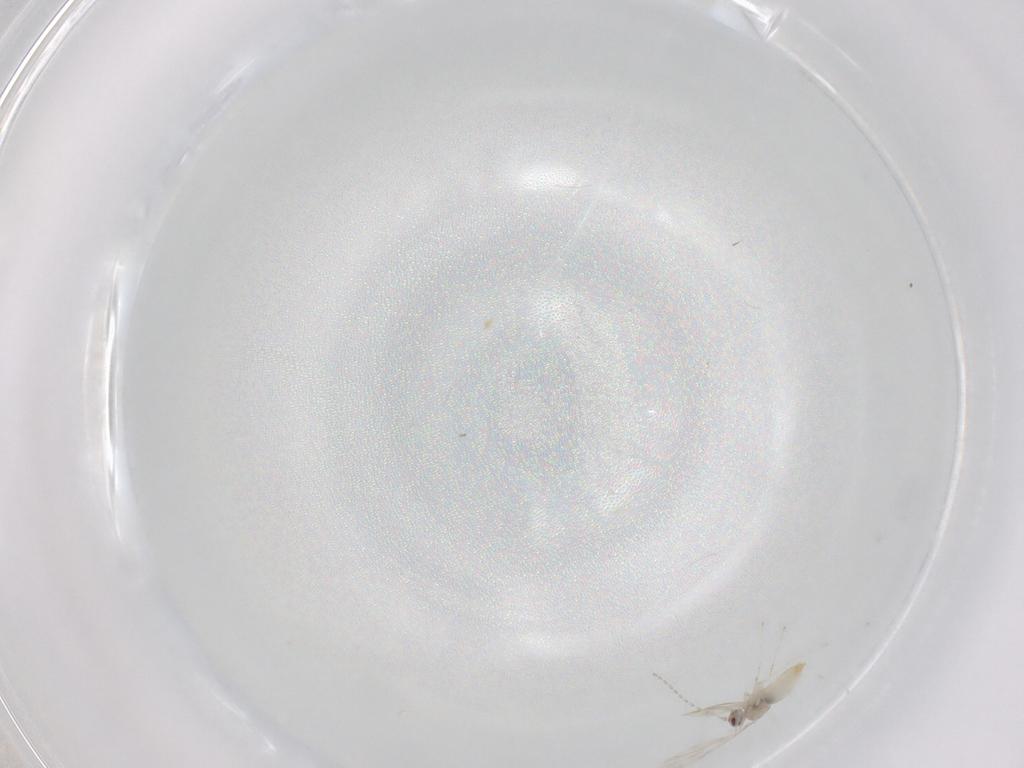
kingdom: Animalia
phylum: Arthropoda
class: Insecta
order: Diptera
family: Cecidomyiidae
